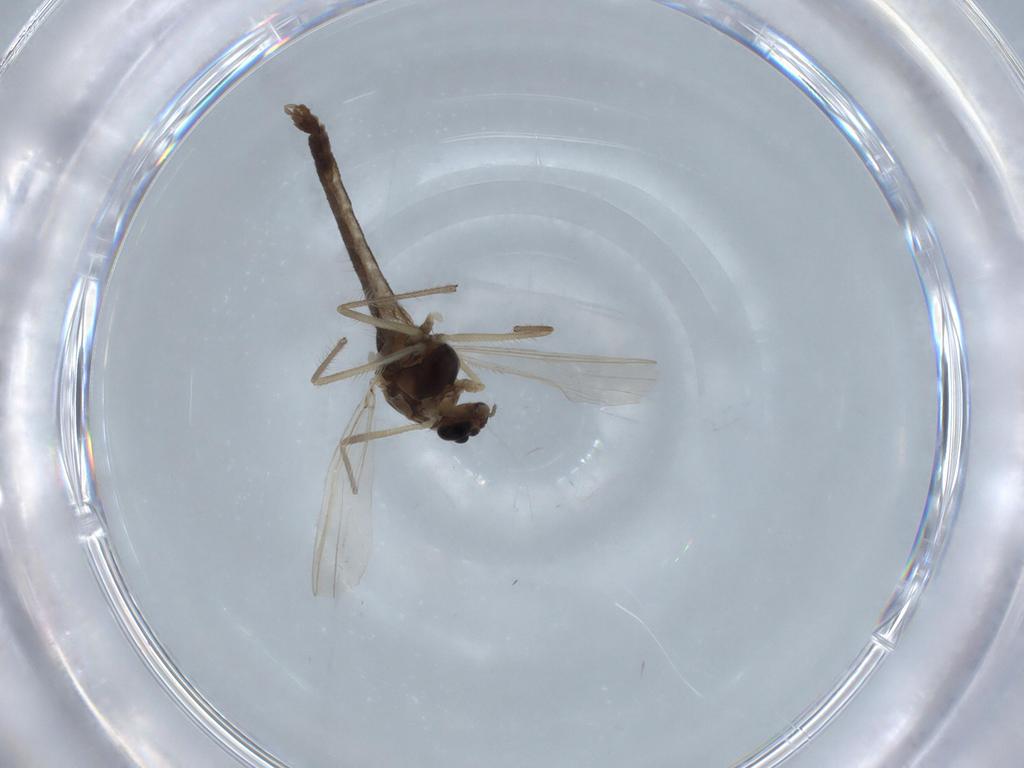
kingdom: Animalia
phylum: Arthropoda
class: Insecta
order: Diptera
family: Chironomidae
